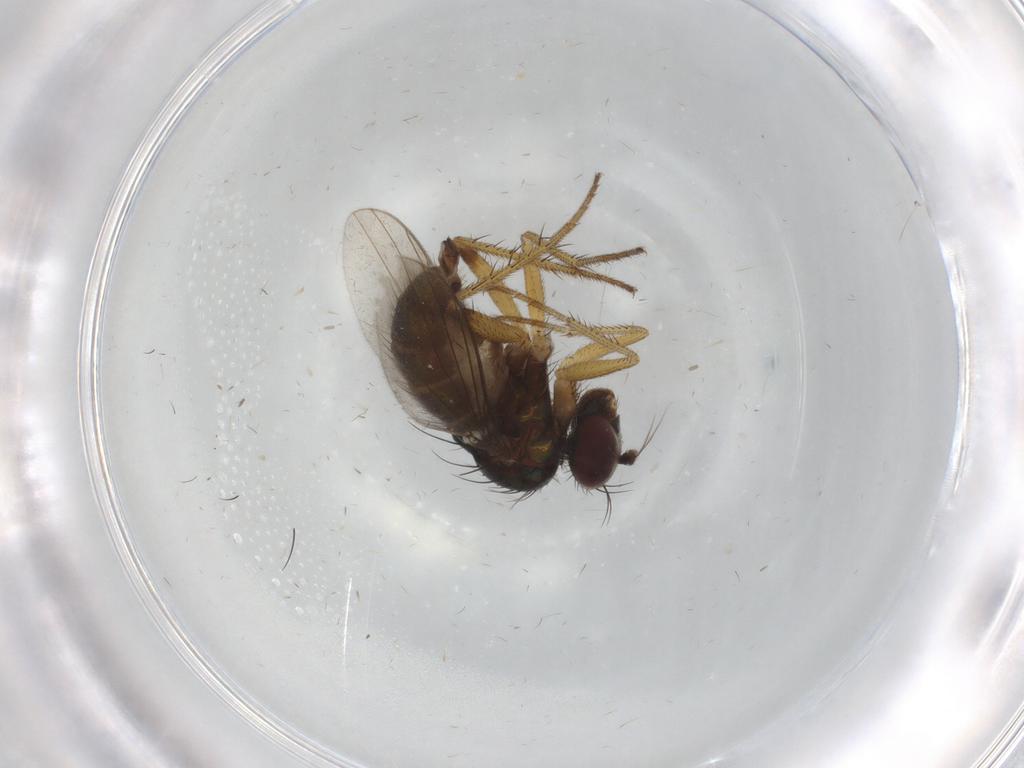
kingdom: Animalia
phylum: Arthropoda
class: Insecta
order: Diptera
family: Dolichopodidae
